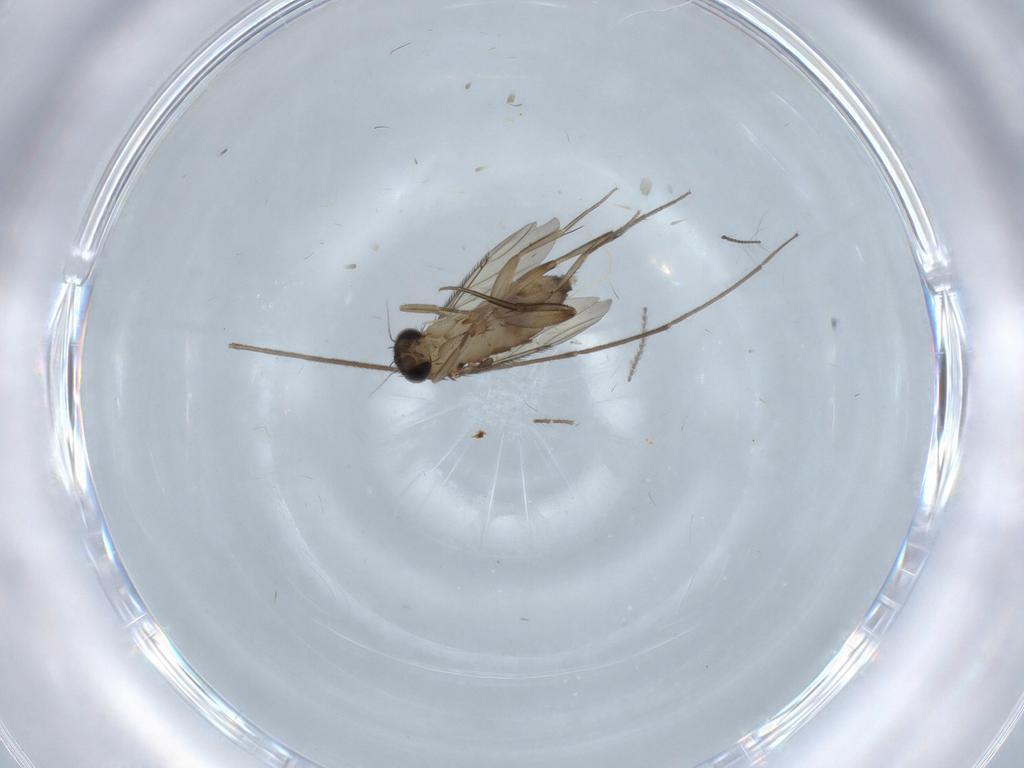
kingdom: Animalia
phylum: Arthropoda
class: Insecta
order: Diptera
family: Phoridae
